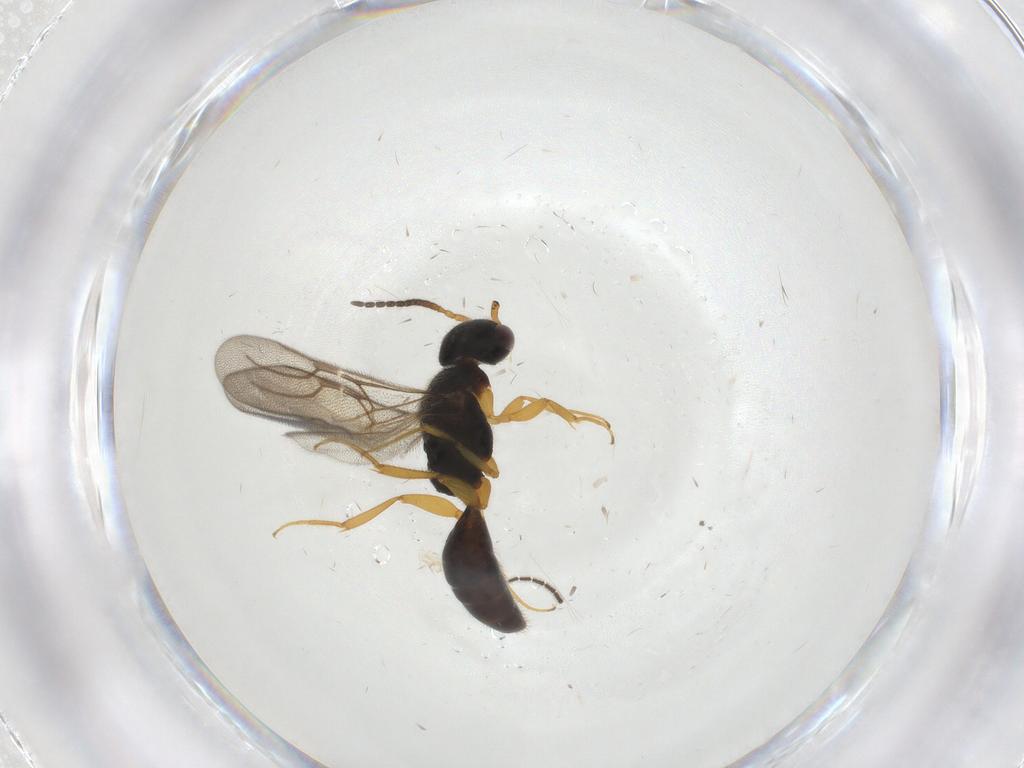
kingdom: Animalia
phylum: Arthropoda
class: Insecta
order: Hymenoptera
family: Bethylidae
